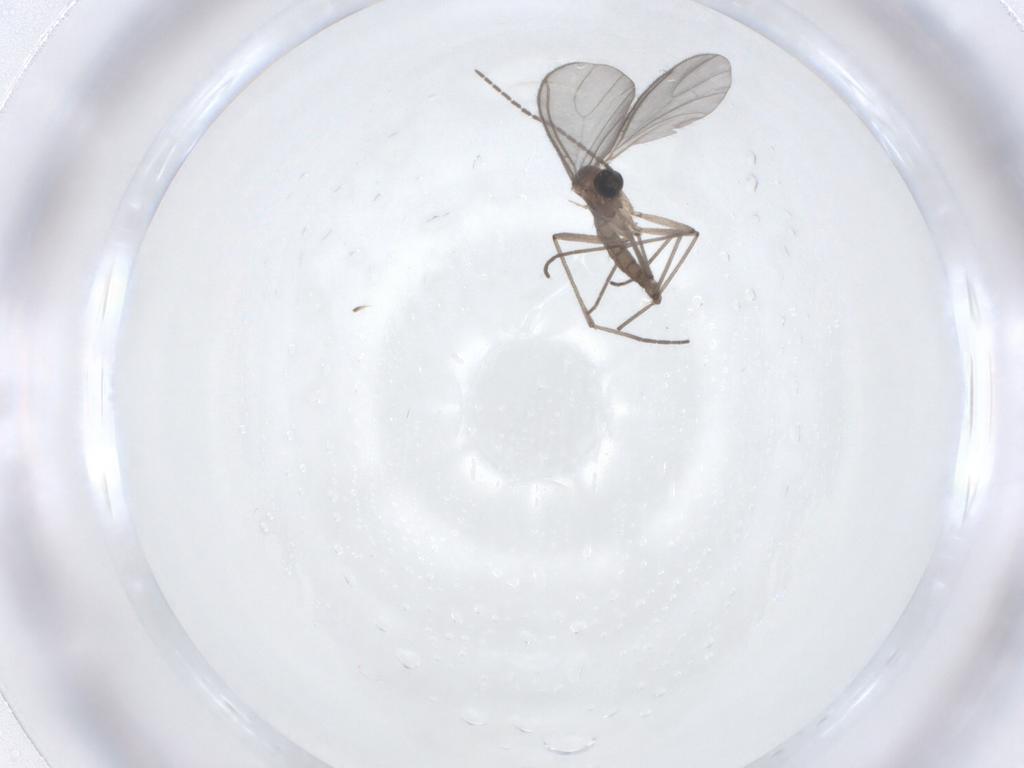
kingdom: Animalia
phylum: Arthropoda
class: Insecta
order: Diptera
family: Sciaridae
